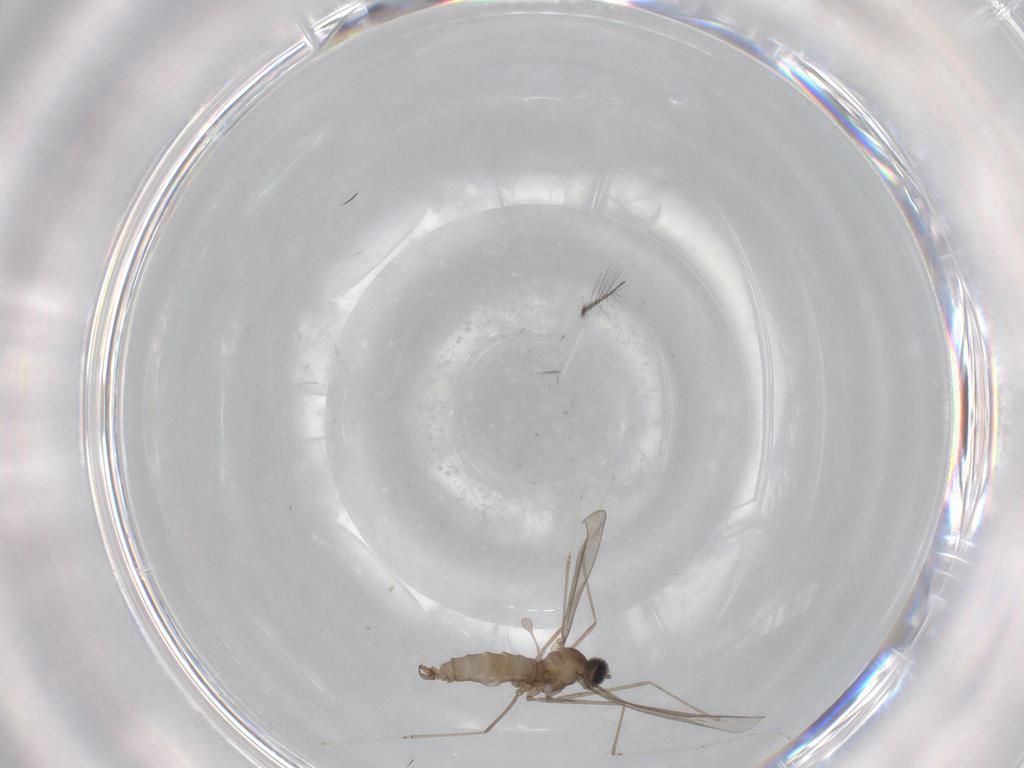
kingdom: Animalia
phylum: Arthropoda
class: Insecta
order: Diptera
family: Cecidomyiidae
